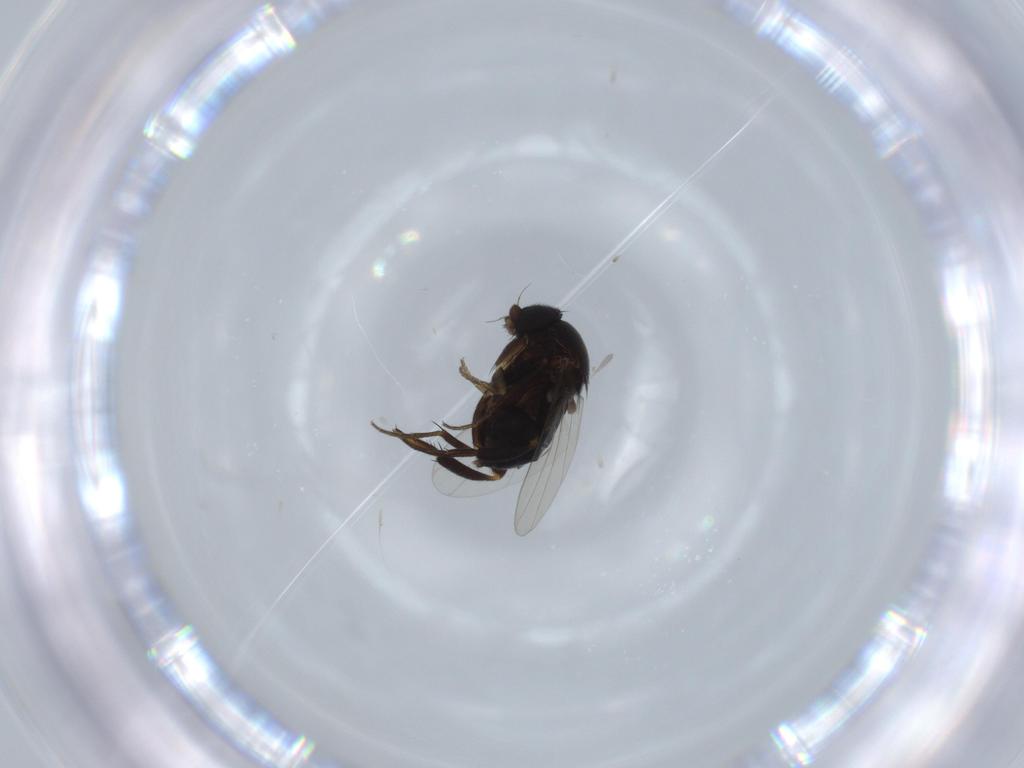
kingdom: Animalia
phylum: Arthropoda
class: Insecta
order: Diptera
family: Phoridae
